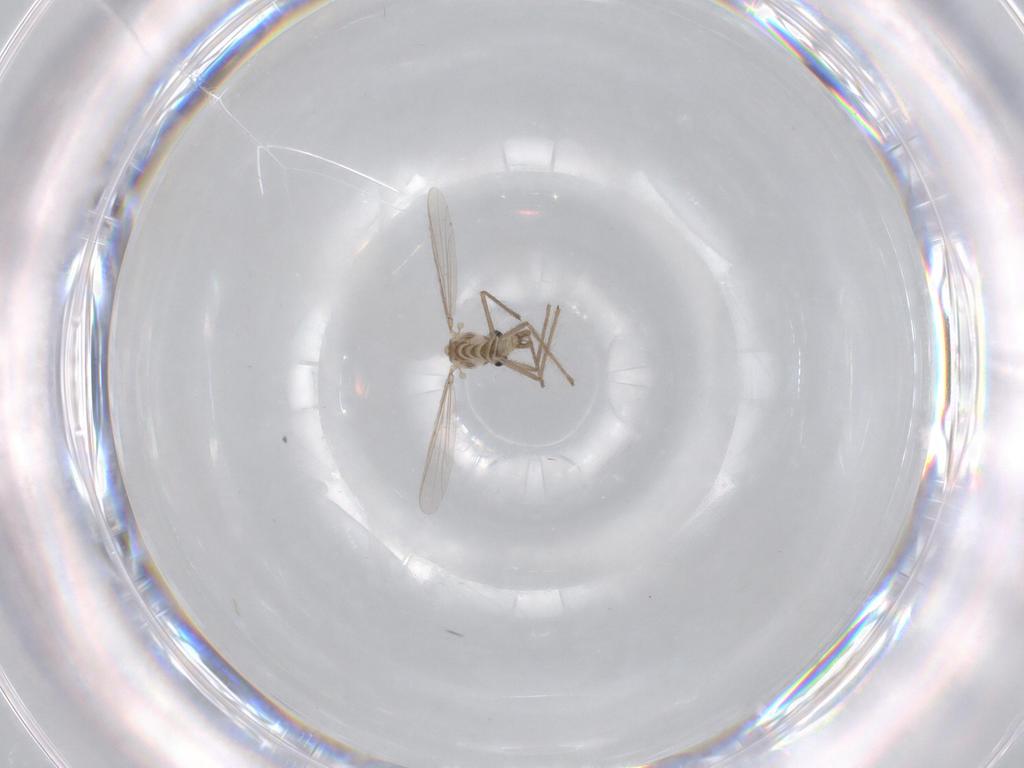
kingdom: Animalia
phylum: Arthropoda
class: Insecta
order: Diptera
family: Chironomidae
